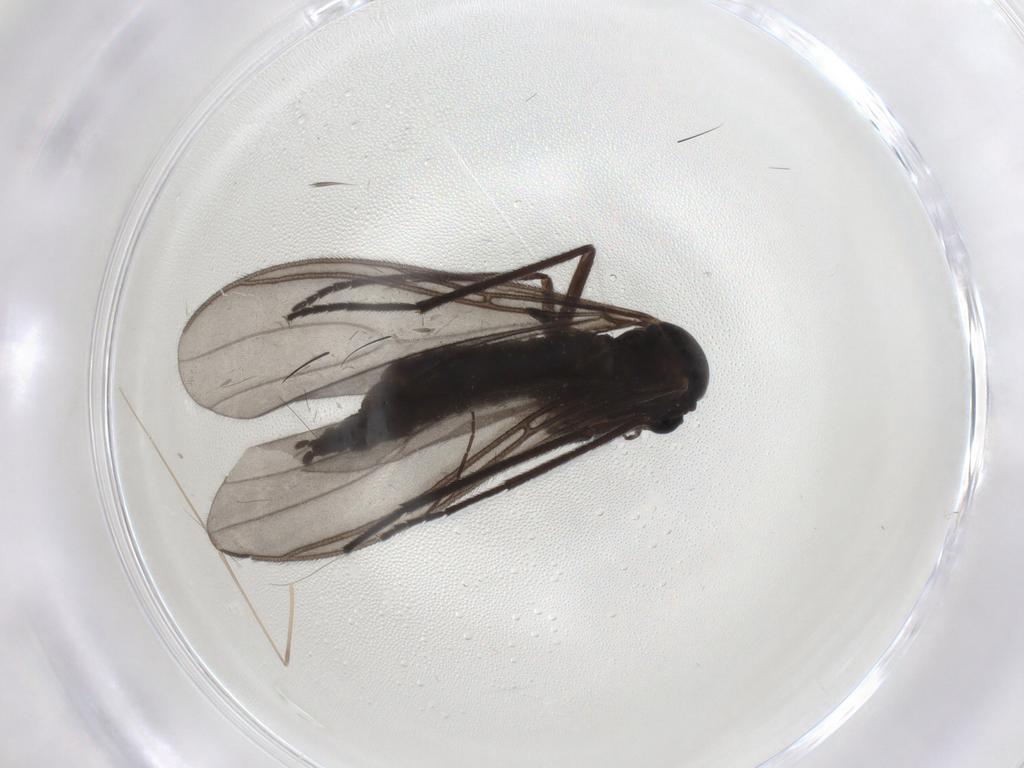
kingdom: Animalia
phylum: Arthropoda
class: Insecta
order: Diptera
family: Sciaridae
